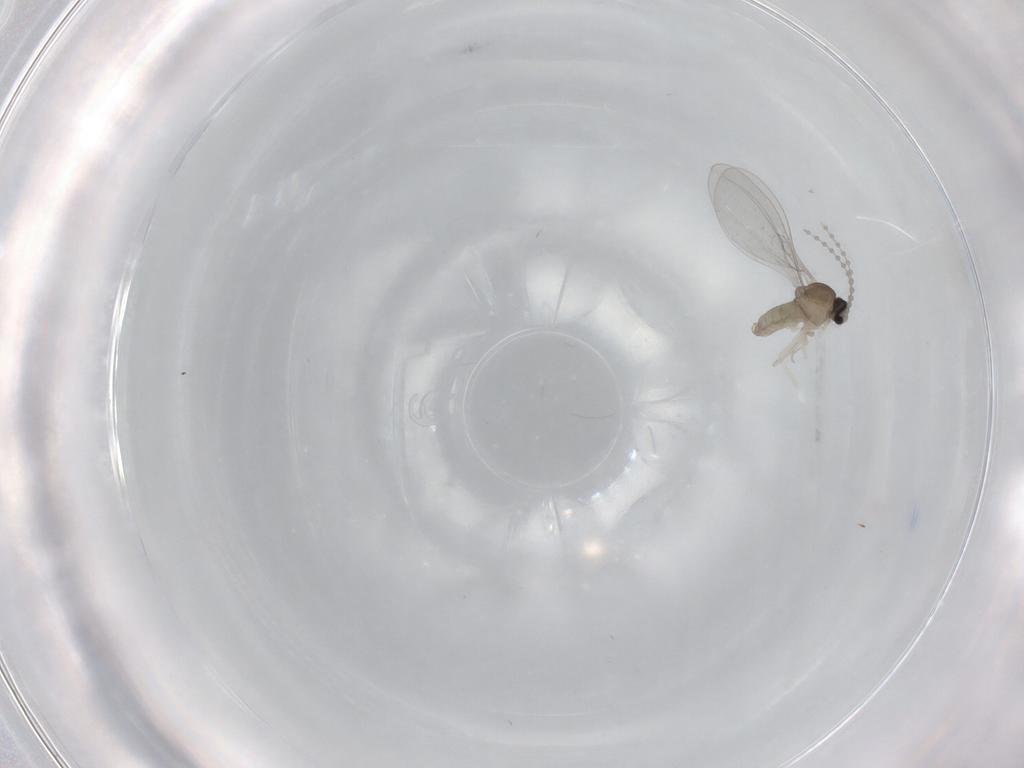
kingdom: Animalia
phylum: Arthropoda
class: Insecta
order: Diptera
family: Cecidomyiidae
